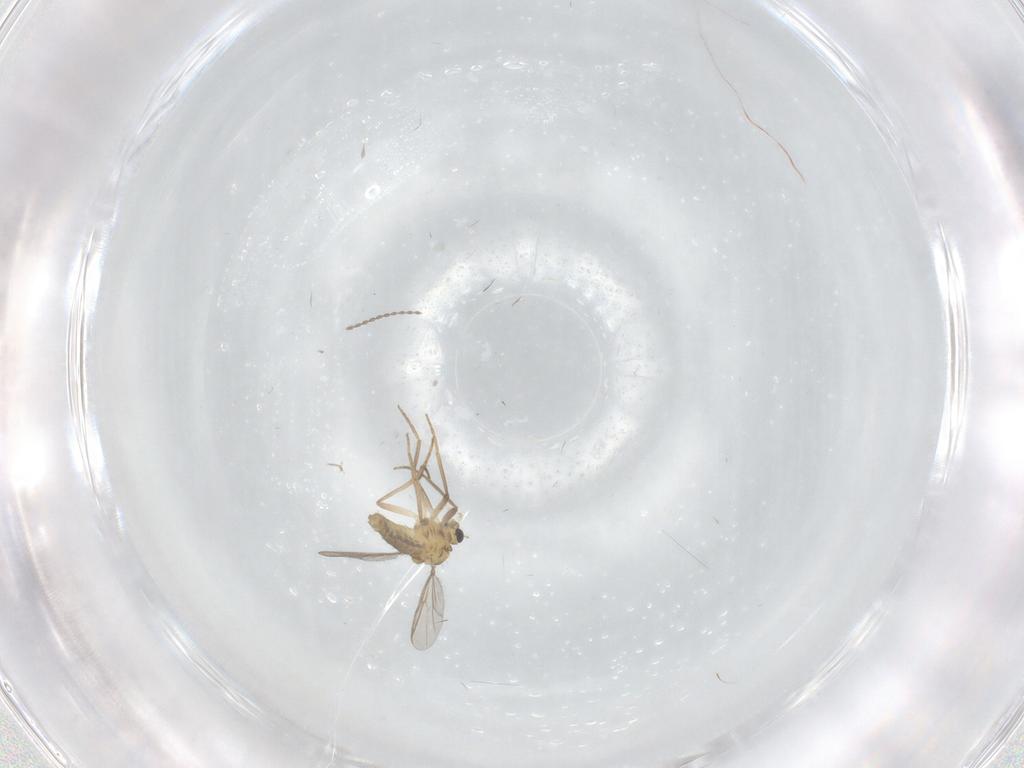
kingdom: Animalia
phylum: Arthropoda
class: Insecta
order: Diptera
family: Chironomidae
